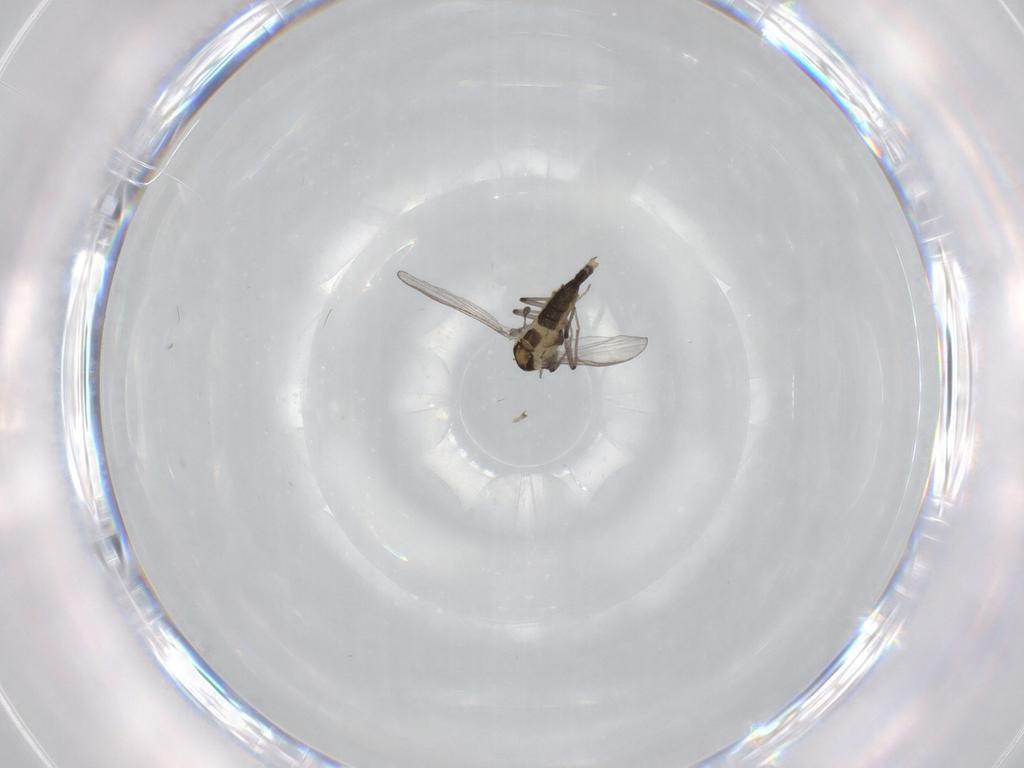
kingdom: Animalia
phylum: Arthropoda
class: Insecta
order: Diptera
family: Chironomidae
